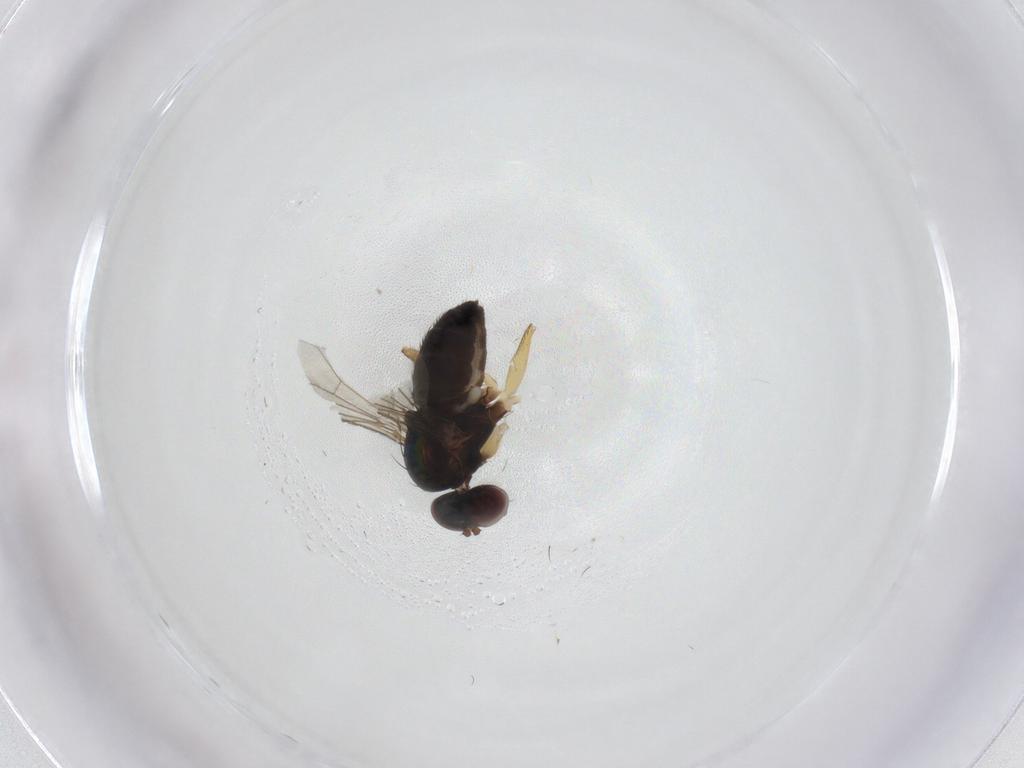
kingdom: Animalia
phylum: Arthropoda
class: Insecta
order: Diptera
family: Dolichopodidae
